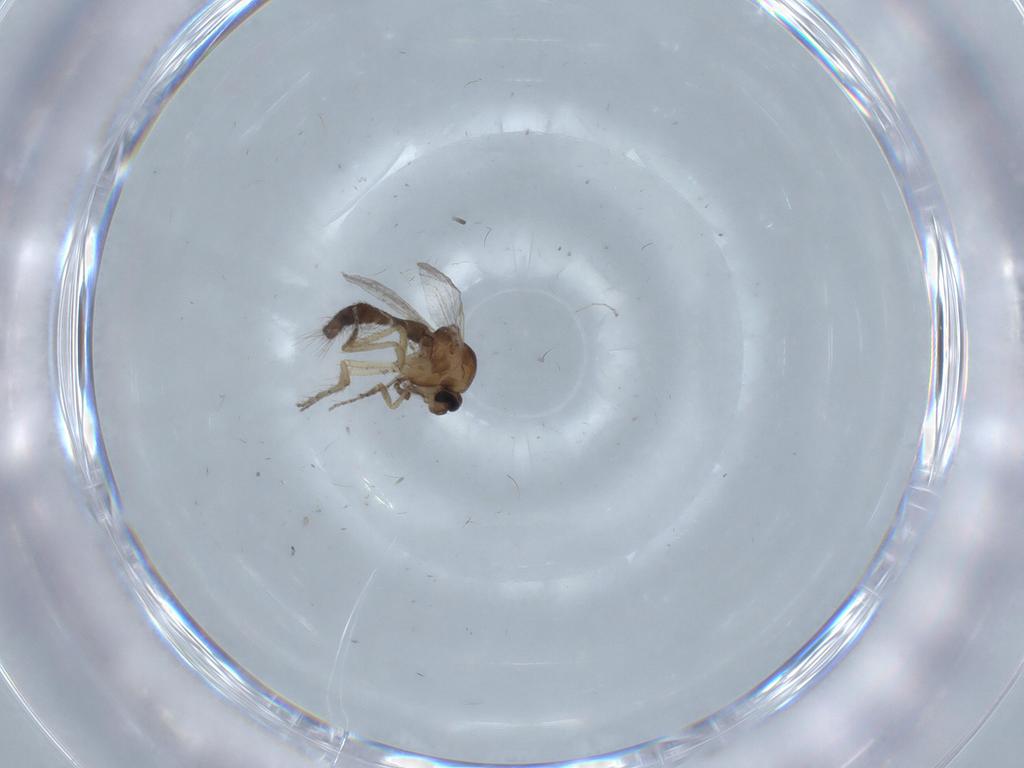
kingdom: Animalia
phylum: Arthropoda
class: Insecta
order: Diptera
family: Ceratopogonidae
